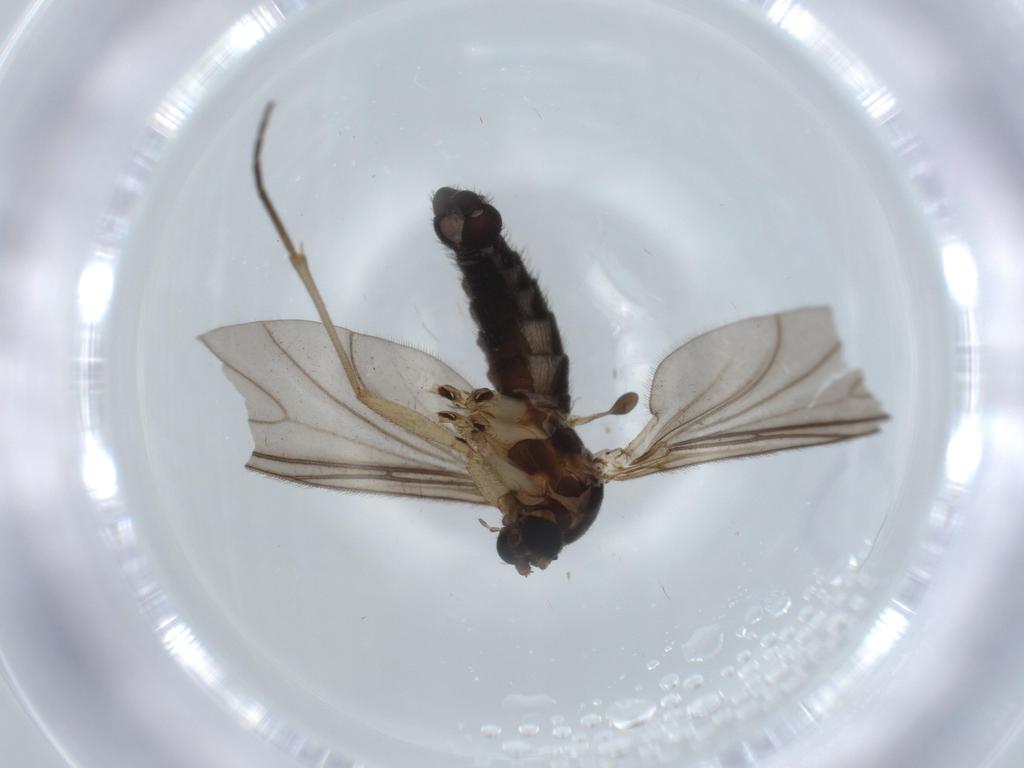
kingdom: Animalia
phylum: Arthropoda
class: Insecta
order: Diptera
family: Sciaridae
